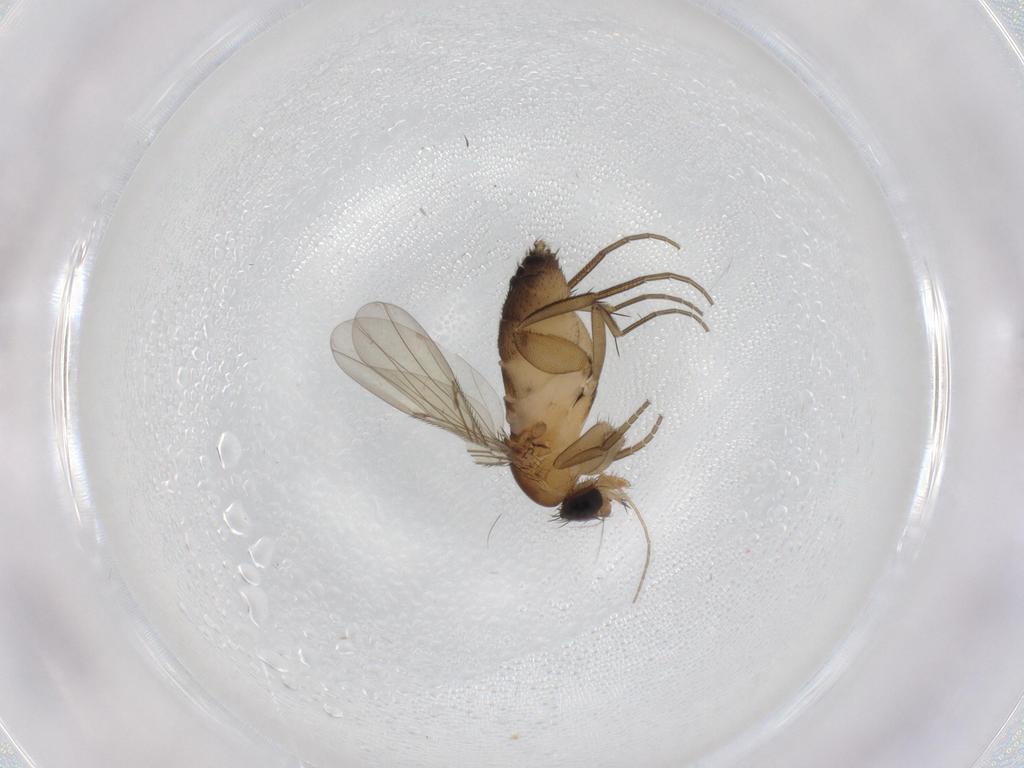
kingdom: Animalia
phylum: Arthropoda
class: Insecta
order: Diptera
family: Phoridae
